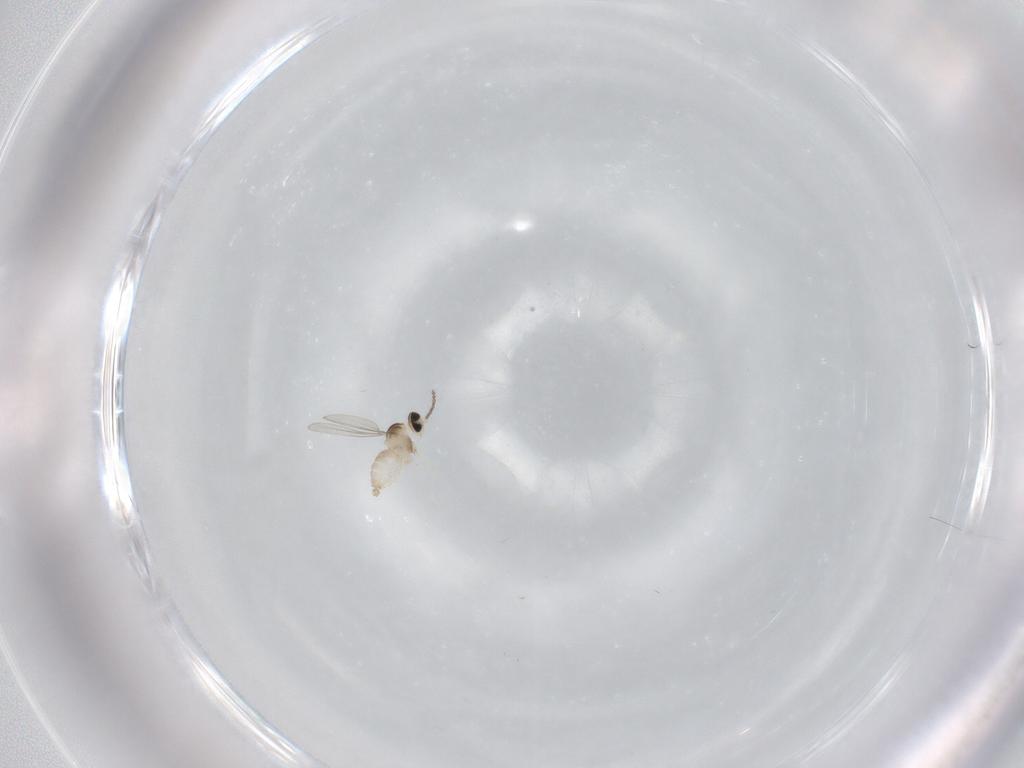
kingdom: Animalia
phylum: Arthropoda
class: Insecta
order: Diptera
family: Cecidomyiidae
